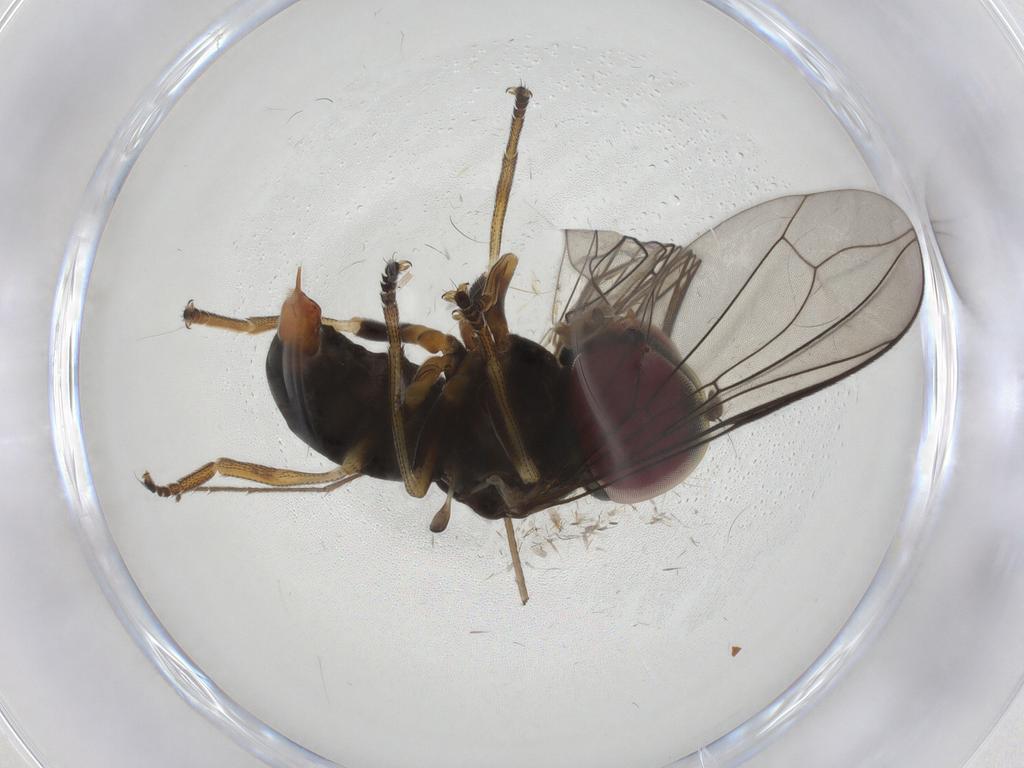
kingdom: Animalia
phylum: Arthropoda
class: Insecta
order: Diptera
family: Pipunculidae
